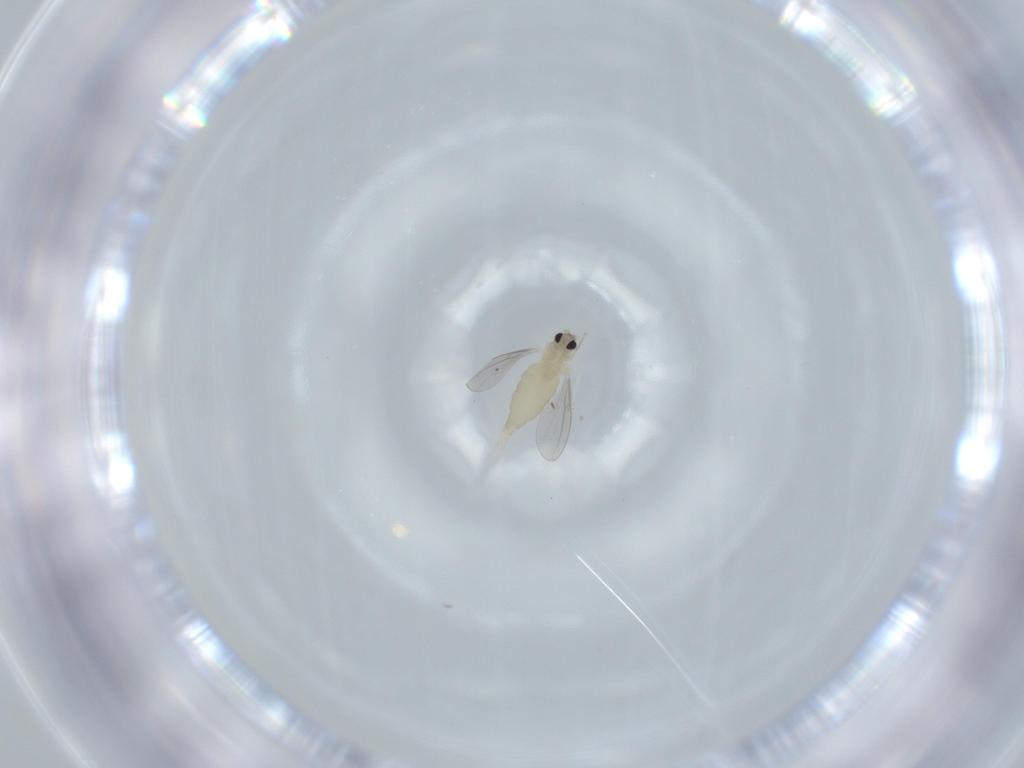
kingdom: Animalia
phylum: Arthropoda
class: Insecta
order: Diptera
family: Cecidomyiidae
